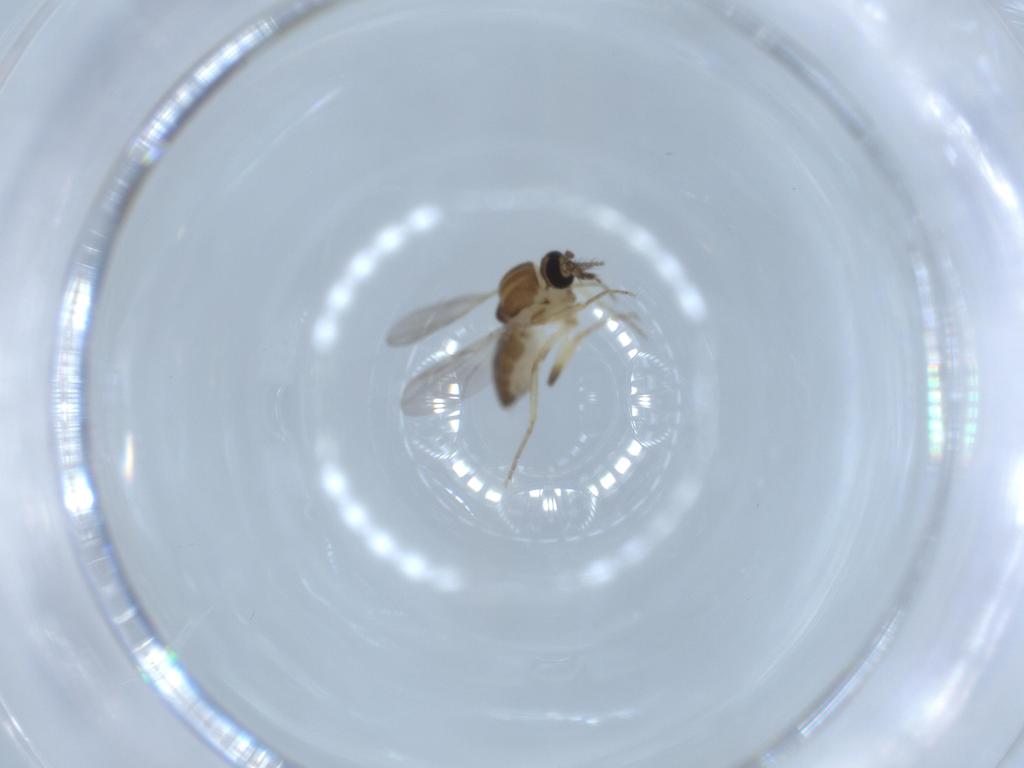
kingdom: Animalia
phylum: Arthropoda
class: Insecta
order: Diptera
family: Ceratopogonidae
